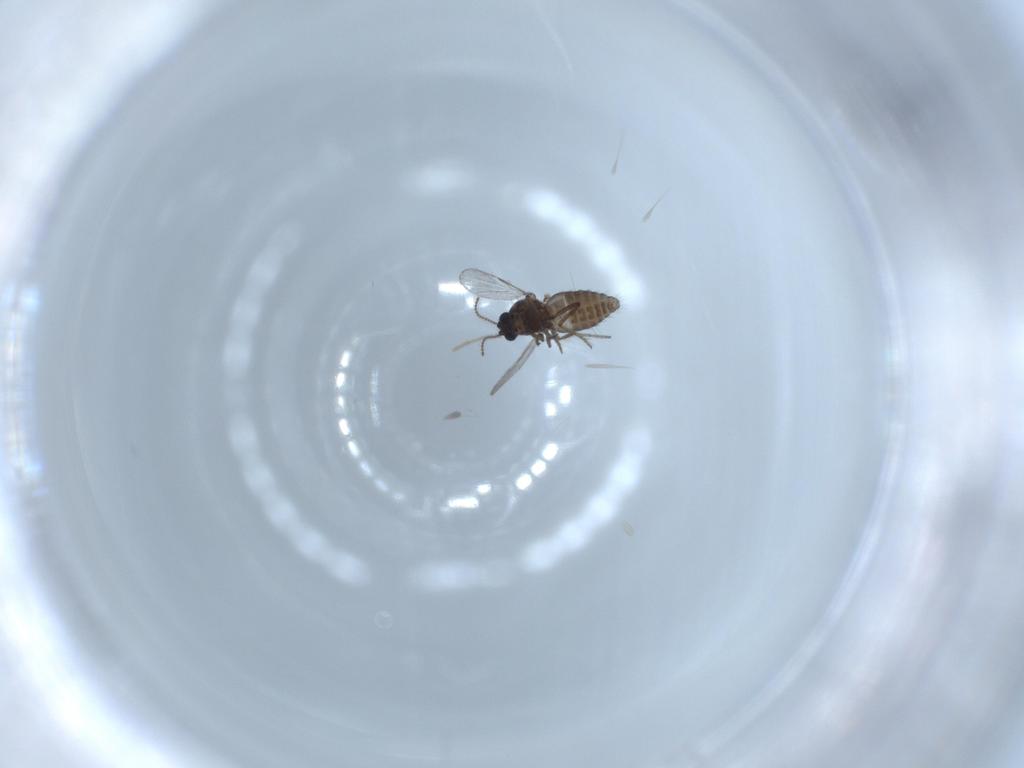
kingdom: Animalia
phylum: Arthropoda
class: Insecta
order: Diptera
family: Ceratopogonidae
